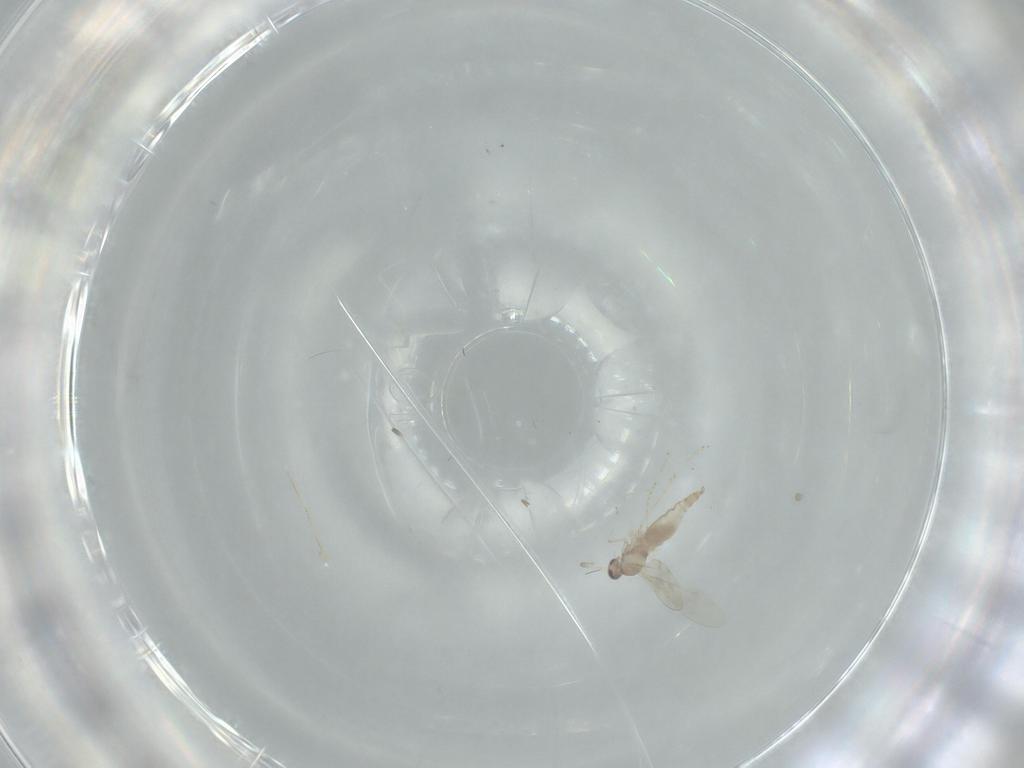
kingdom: Animalia
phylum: Arthropoda
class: Insecta
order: Diptera
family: Cecidomyiidae
